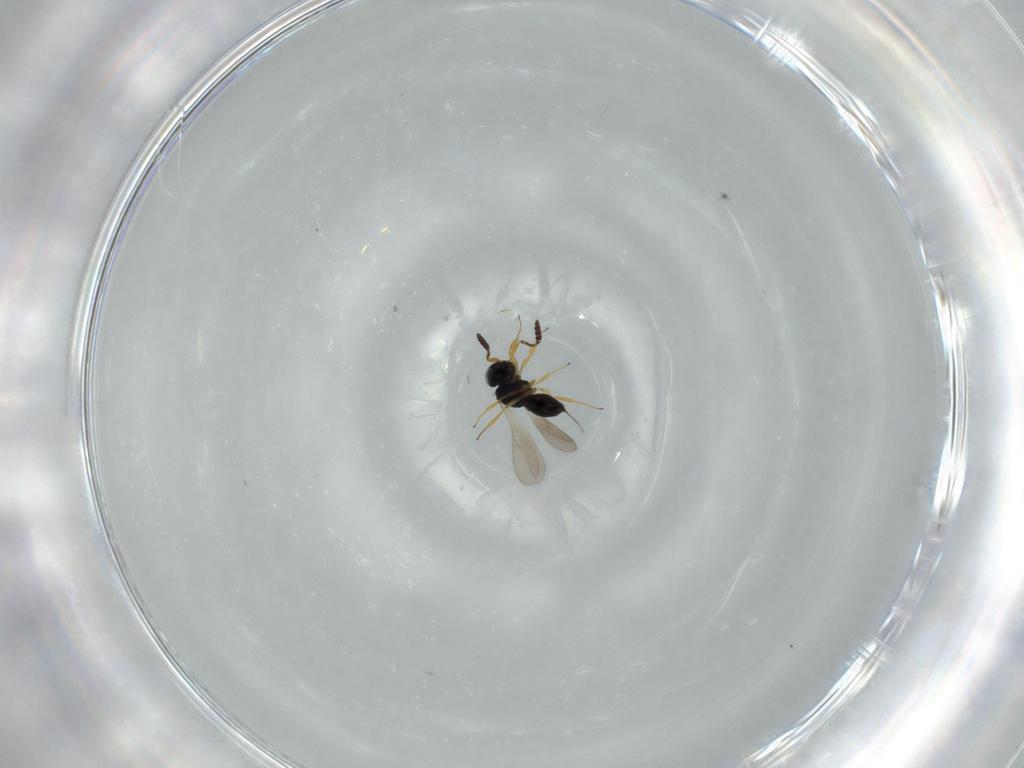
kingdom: Animalia
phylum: Arthropoda
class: Insecta
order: Hymenoptera
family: Scelionidae
